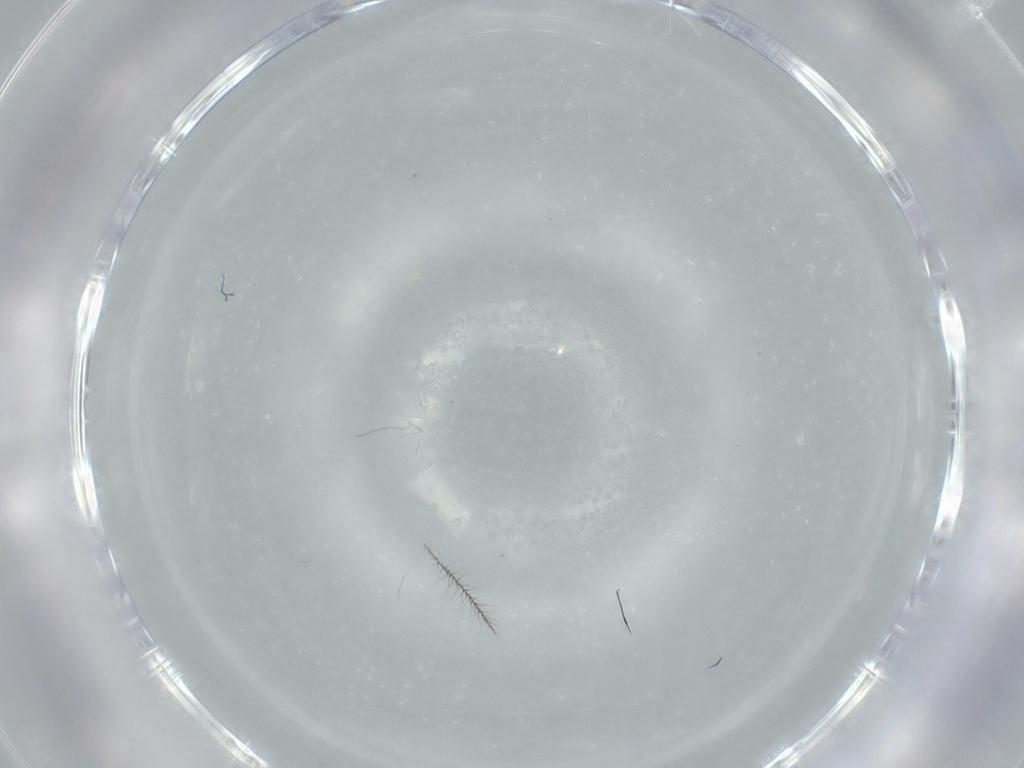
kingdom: Animalia
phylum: Arthropoda
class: Insecta
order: Diptera
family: Cecidomyiidae
